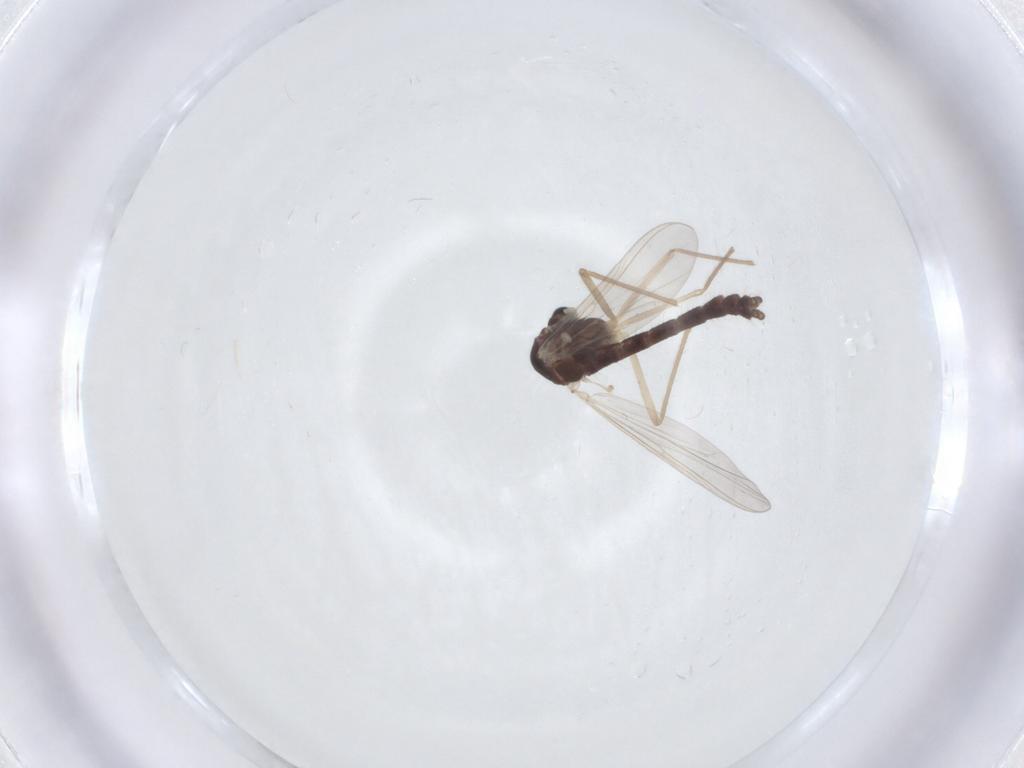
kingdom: Animalia
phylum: Arthropoda
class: Insecta
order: Diptera
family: Chironomidae
